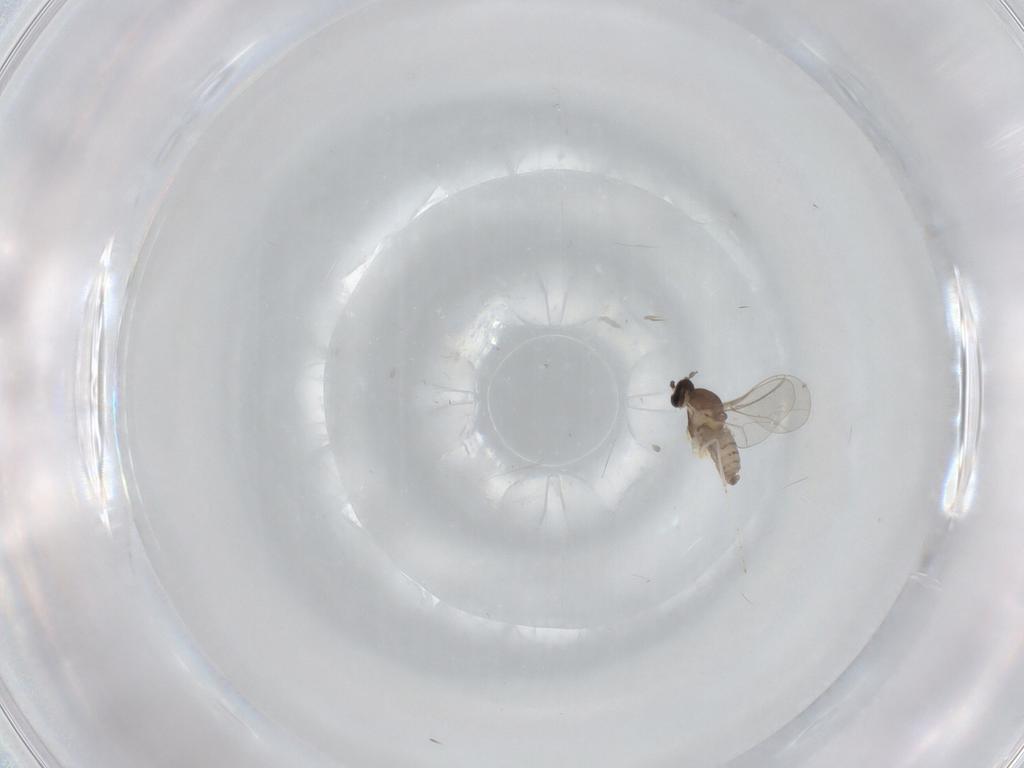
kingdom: Animalia
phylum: Arthropoda
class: Insecta
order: Diptera
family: Cecidomyiidae
